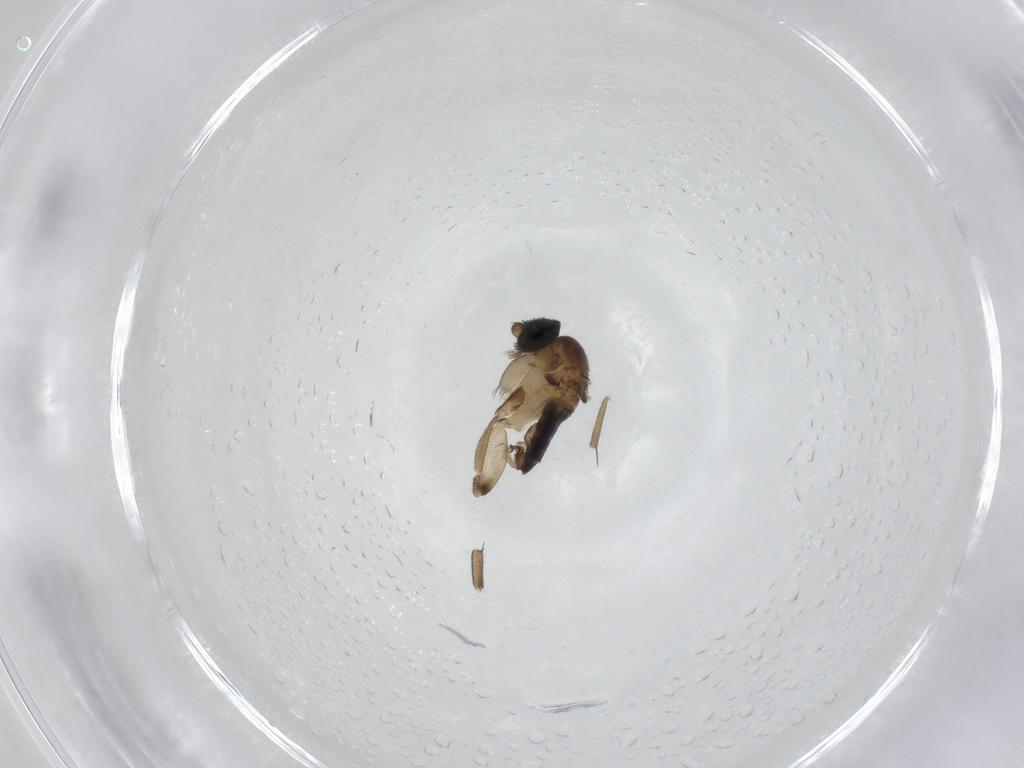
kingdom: Animalia
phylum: Arthropoda
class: Insecta
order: Diptera
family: Phoridae
